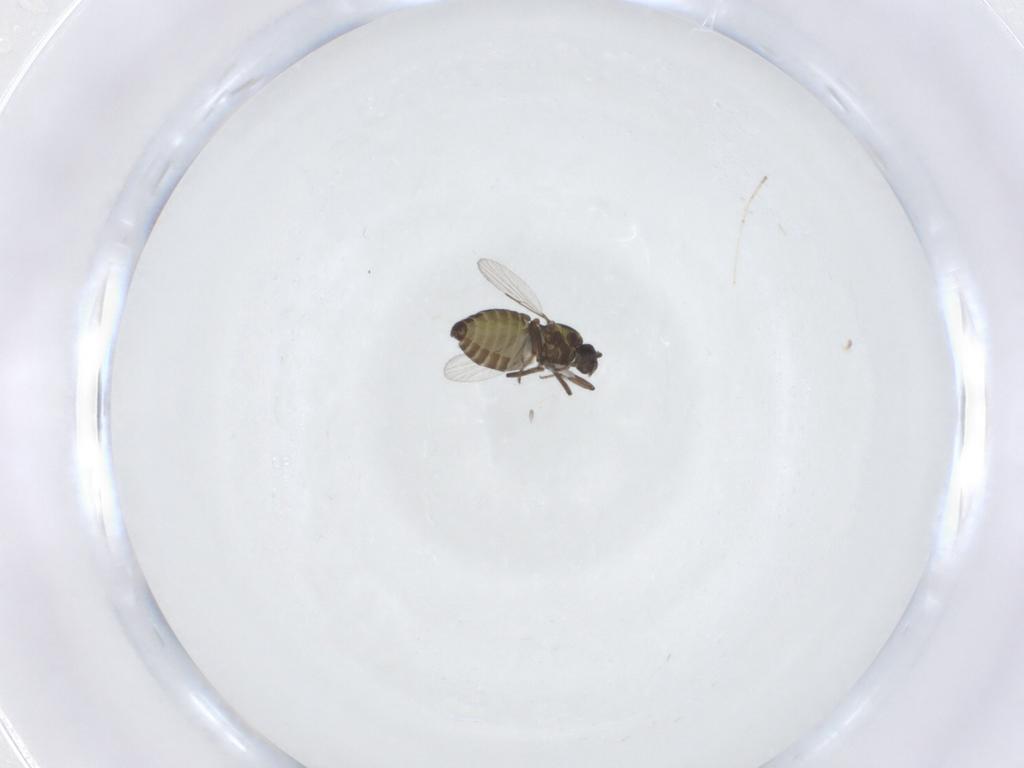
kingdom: Animalia
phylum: Arthropoda
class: Insecta
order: Diptera
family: Ceratopogonidae
